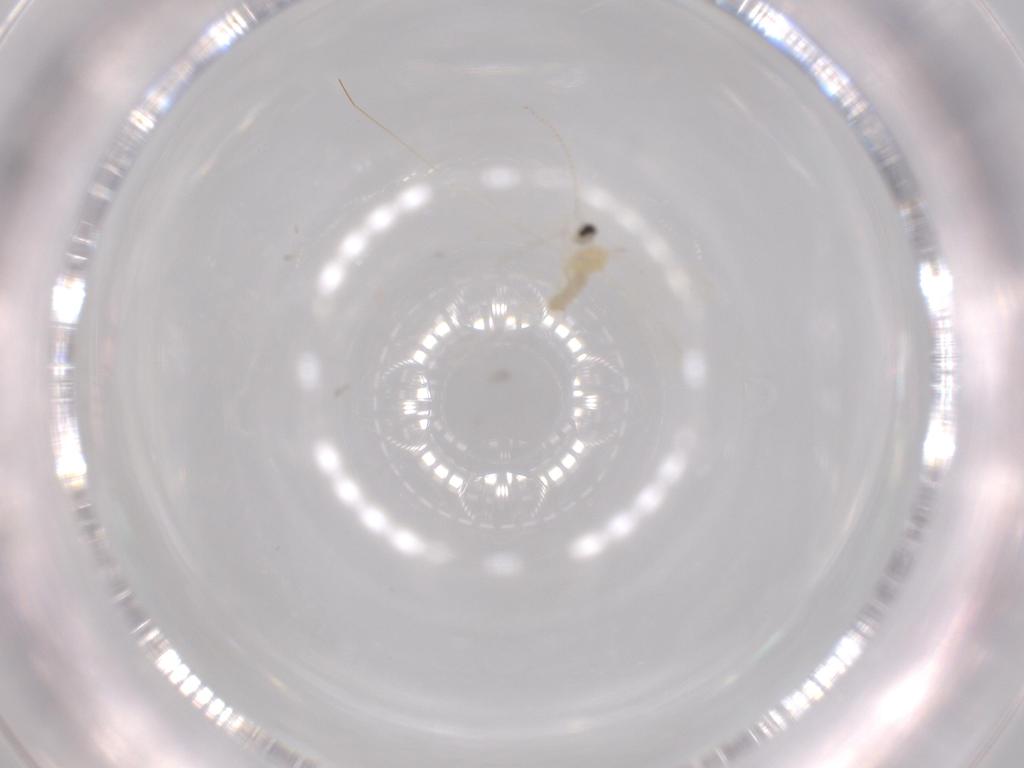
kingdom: Animalia
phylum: Arthropoda
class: Insecta
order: Diptera
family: Cecidomyiidae
